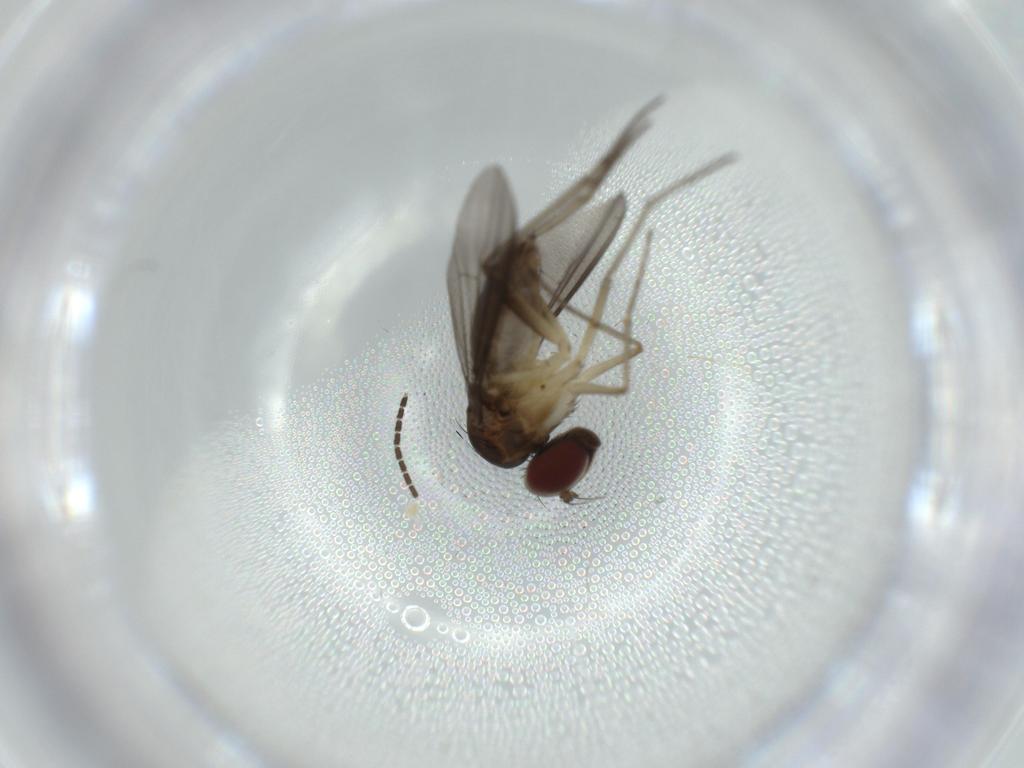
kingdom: Animalia
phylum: Arthropoda
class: Insecta
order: Diptera
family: Dolichopodidae
